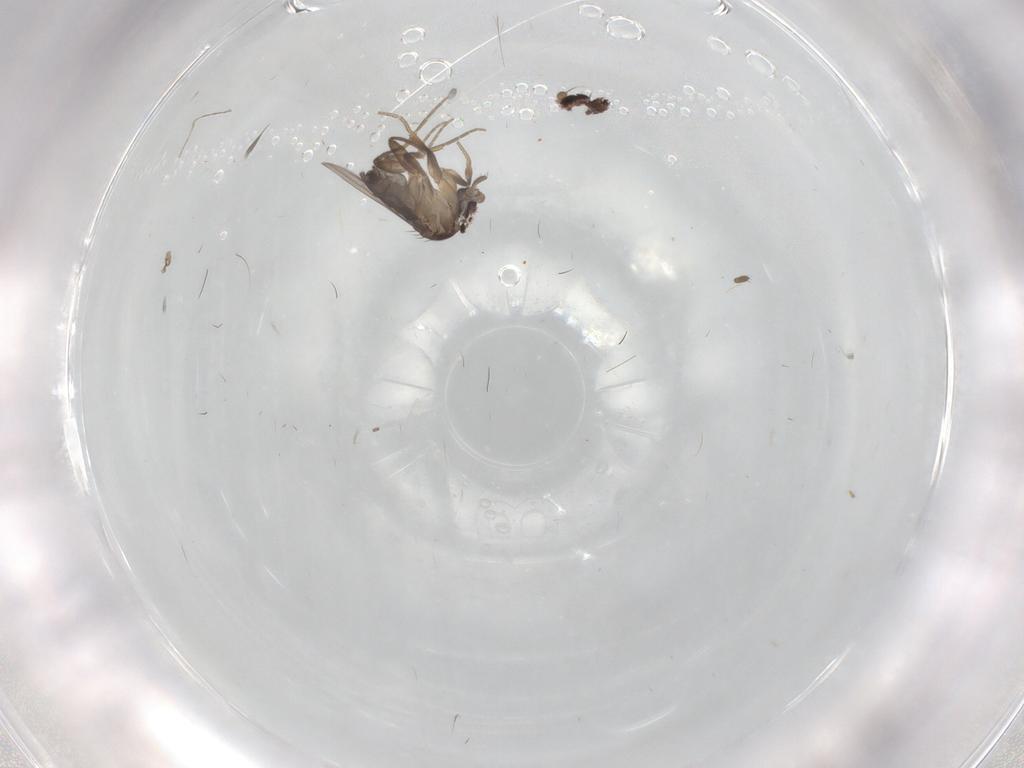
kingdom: Animalia
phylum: Arthropoda
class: Insecta
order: Diptera
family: Phoridae
